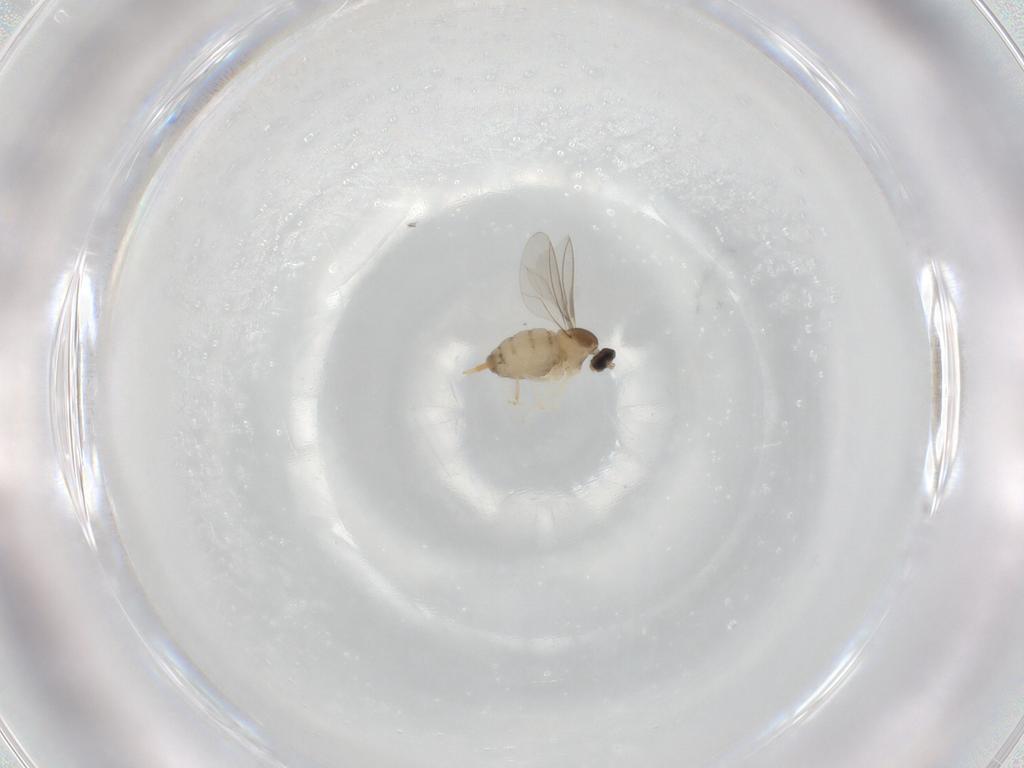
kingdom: Animalia
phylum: Arthropoda
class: Insecta
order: Diptera
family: Cecidomyiidae
